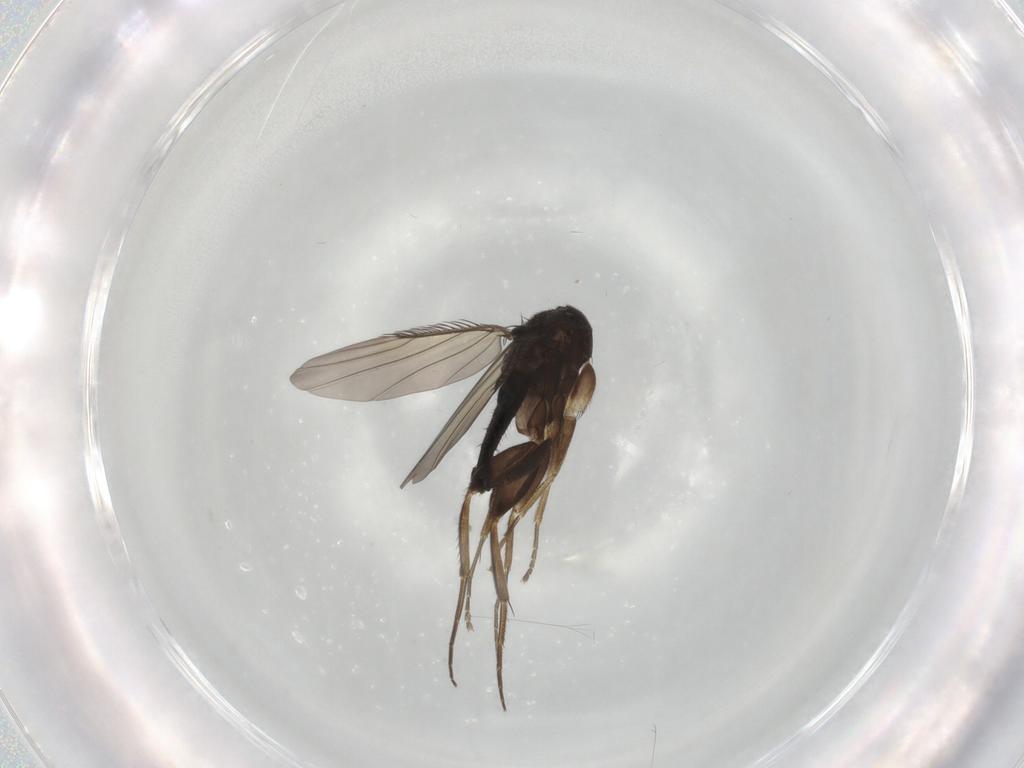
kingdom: Animalia
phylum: Arthropoda
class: Insecta
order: Diptera
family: Phoridae
